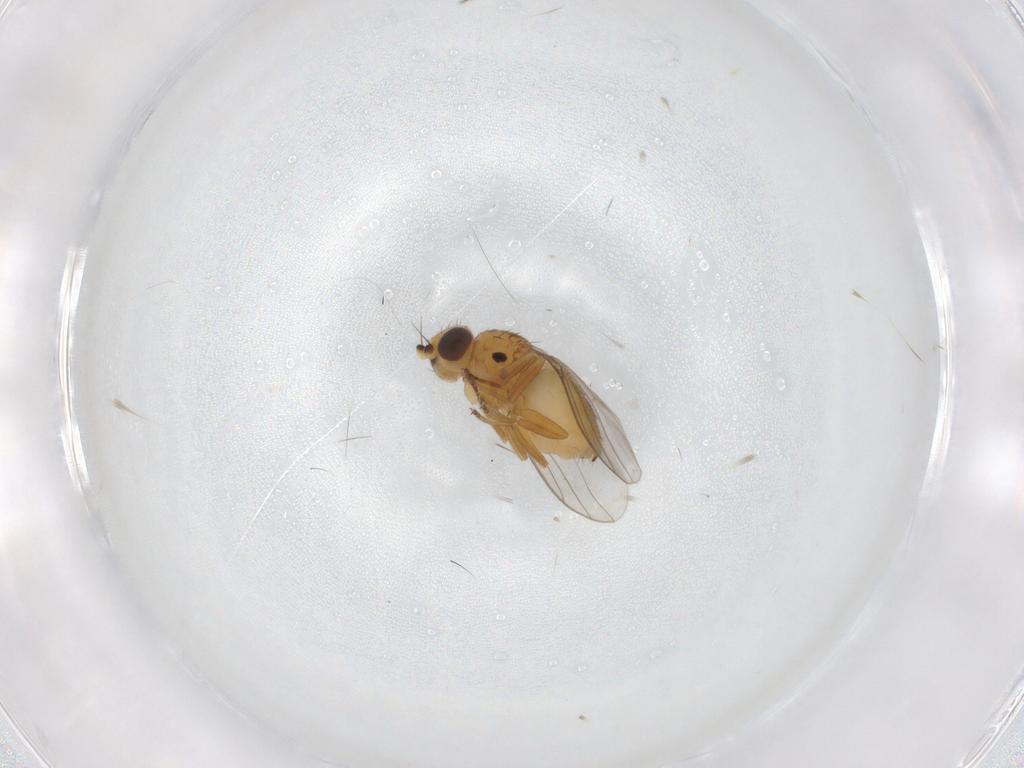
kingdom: Animalia
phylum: Arthropoda
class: Insecta
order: Diptera
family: Chloropidae
